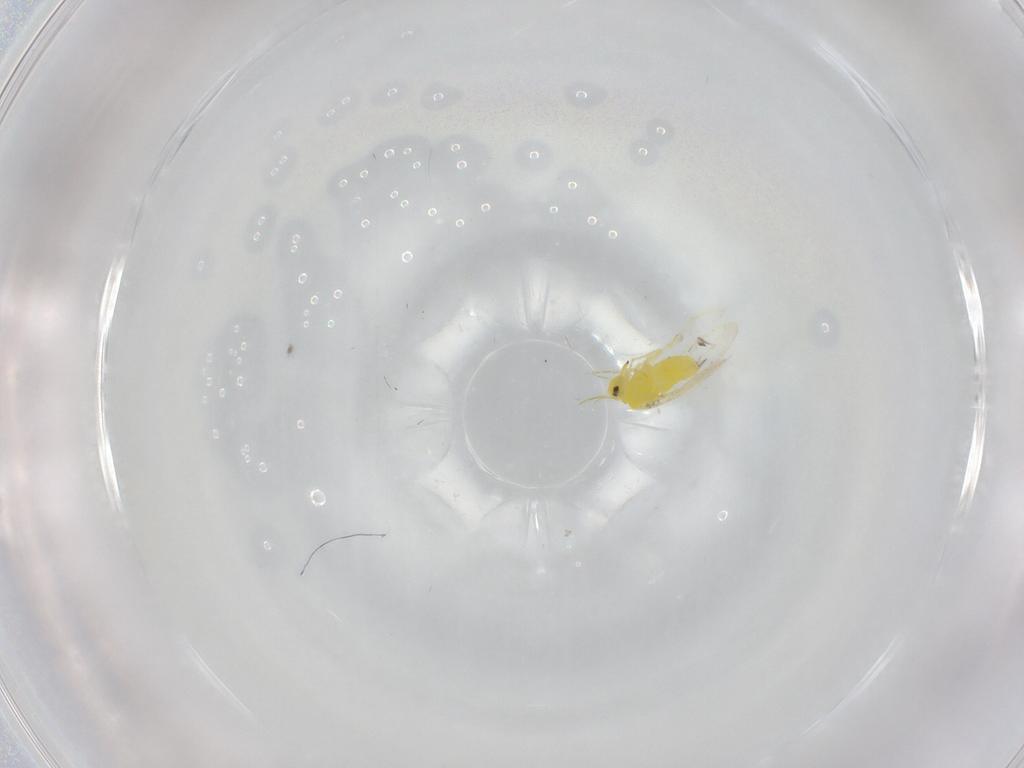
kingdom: Animalia
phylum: Arthropoda
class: Insecta
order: Hemiptera
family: Aleyrodidae
